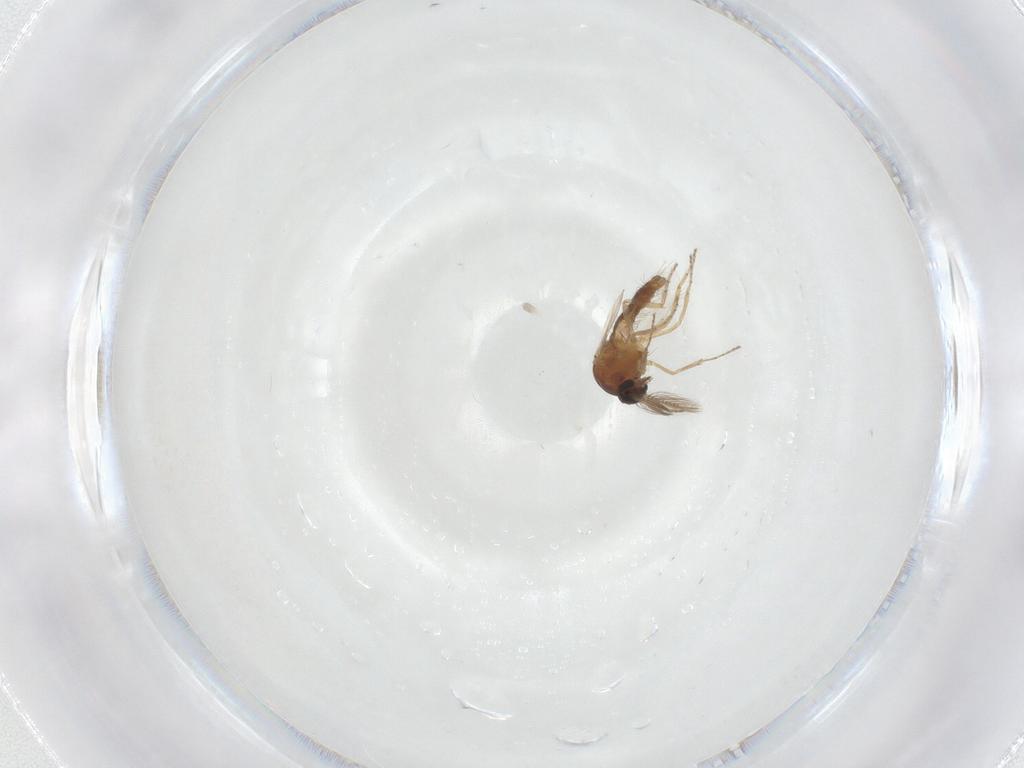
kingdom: Animalia
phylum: Arthropoda
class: Insecta
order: Diptera
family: Ceratopogonidae
